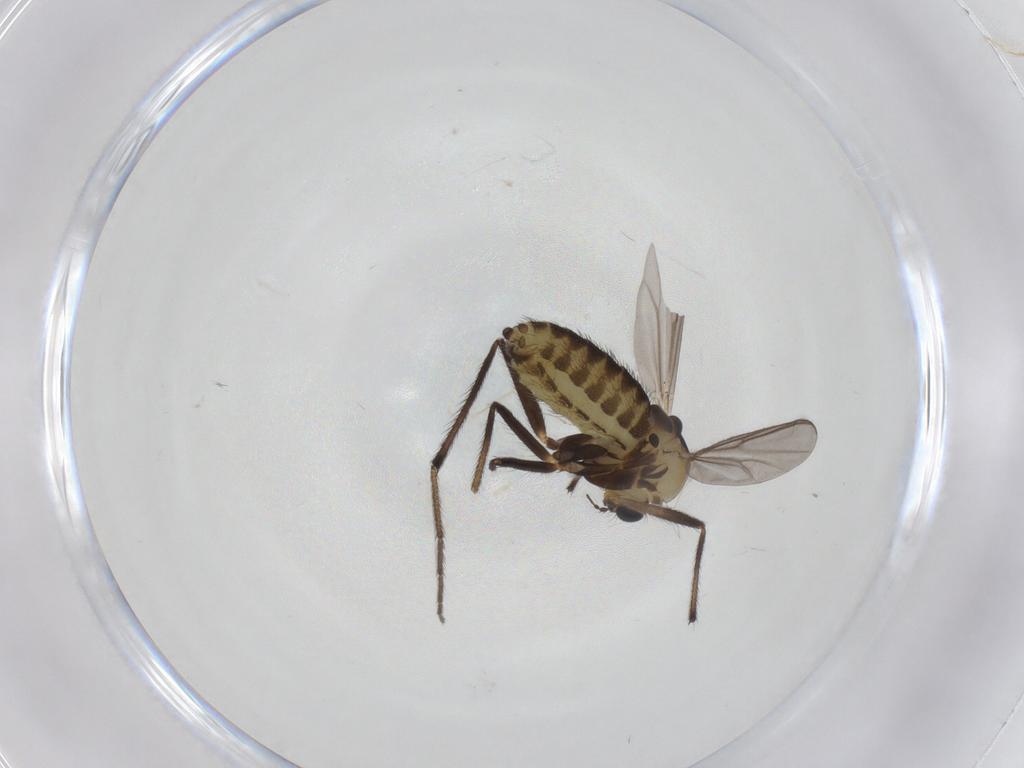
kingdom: Animalia
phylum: Arthropoda
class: Insecta
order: Diptera
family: Chironomidae
